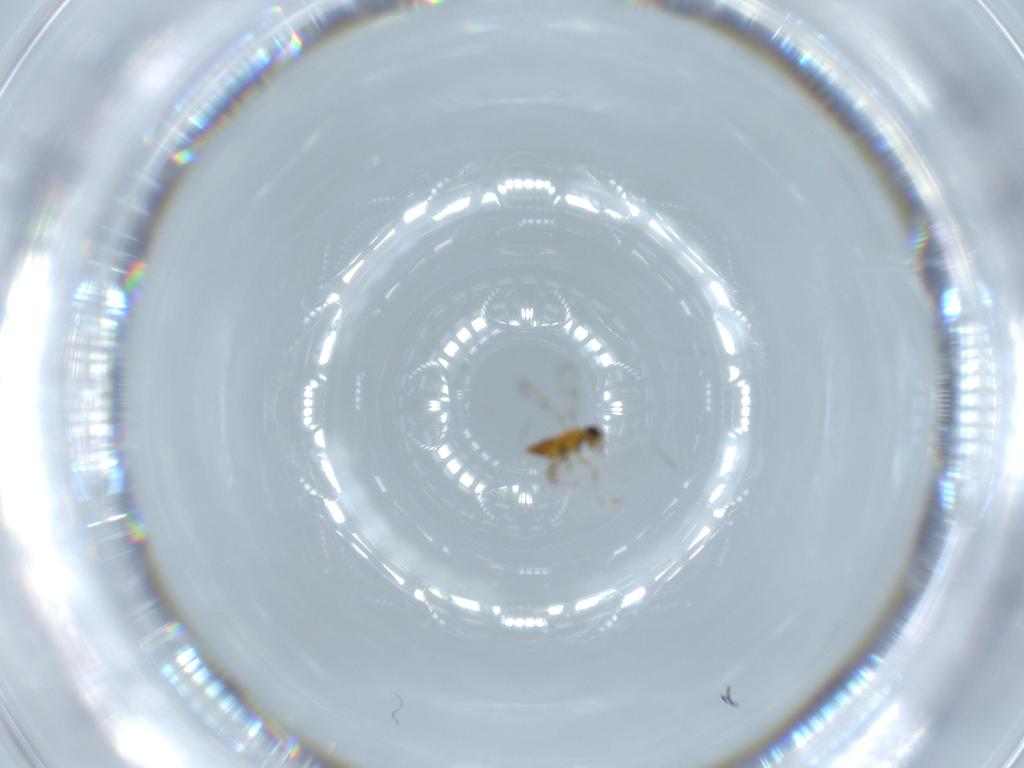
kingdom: Animalia
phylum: Arthropoda
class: Insecta
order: Hymenoptera
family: Bethylidae
